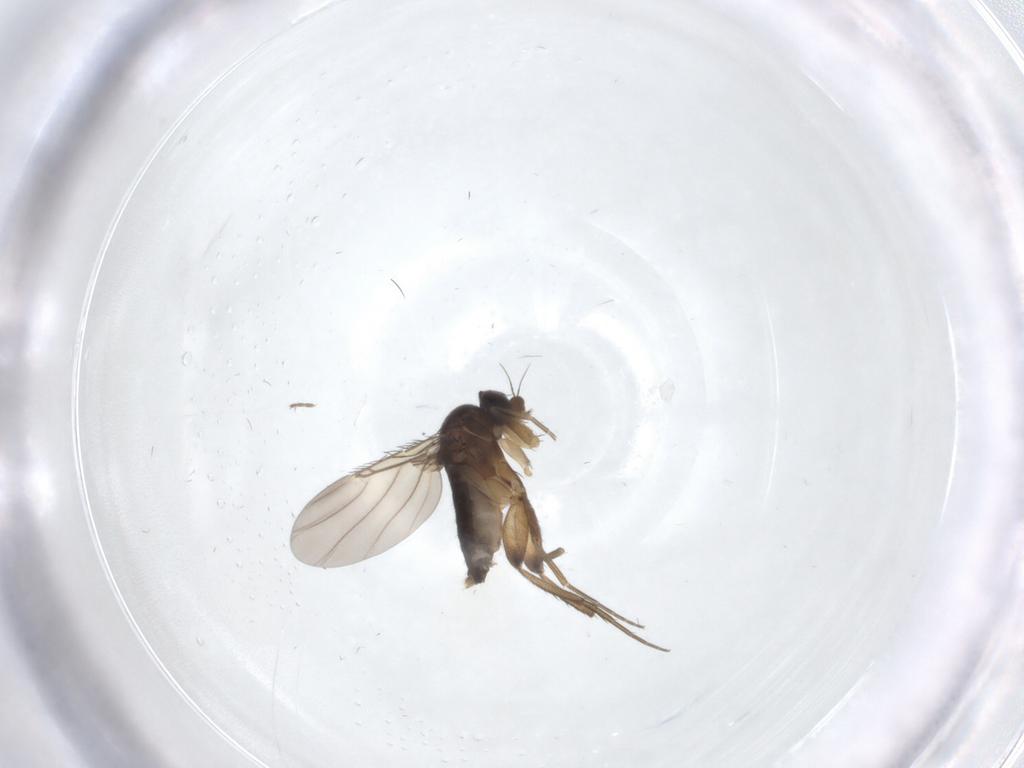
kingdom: Animalia
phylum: Arthropoda
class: Insecta
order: Diptera
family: Phoridae
